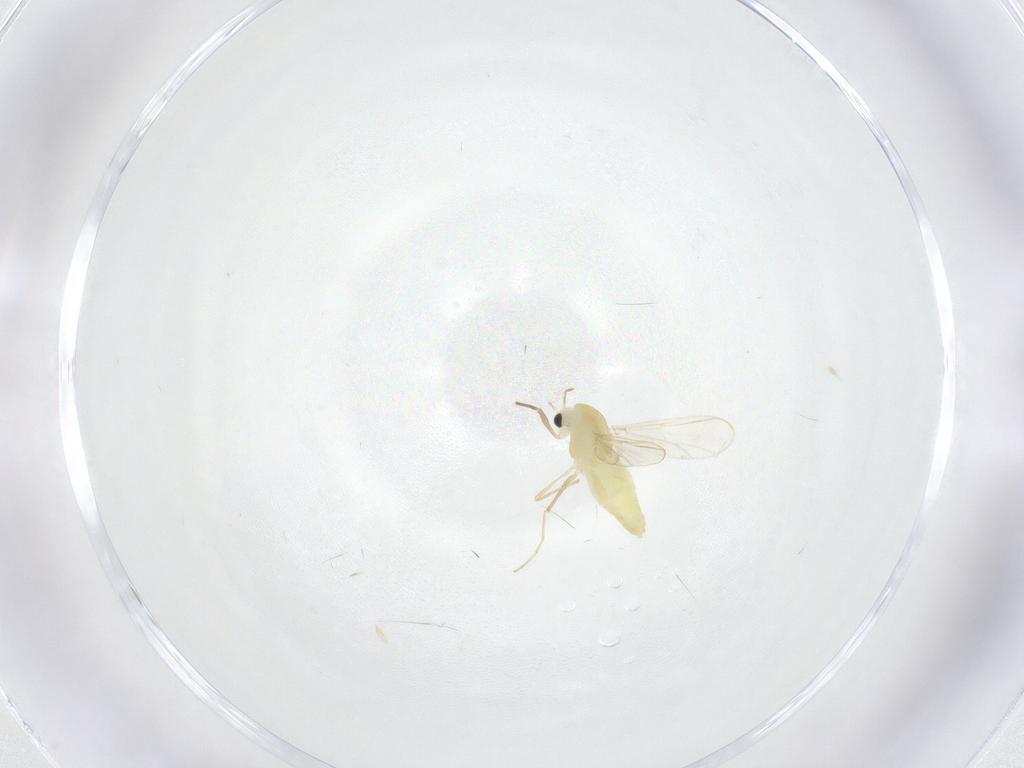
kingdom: Animalia
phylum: Arthropoda
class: Insecta
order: Diptera
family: Chironomidae
